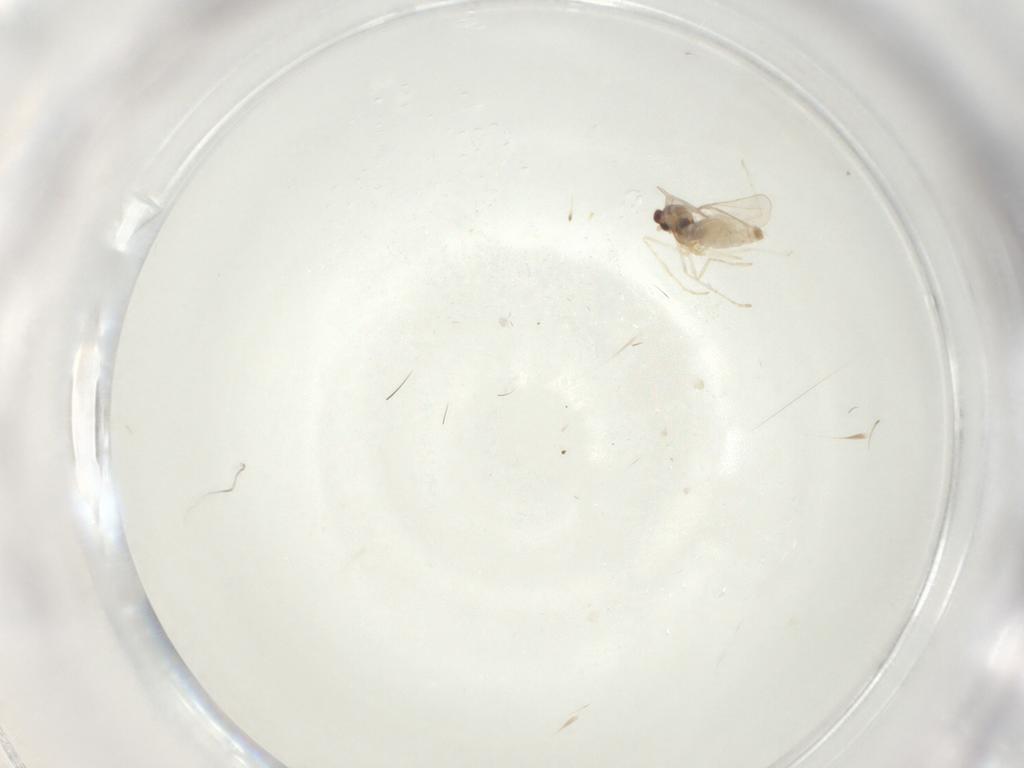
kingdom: Animalia
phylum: Arthropoda
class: Insecta
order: Diptera
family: Cecidomyiidae
